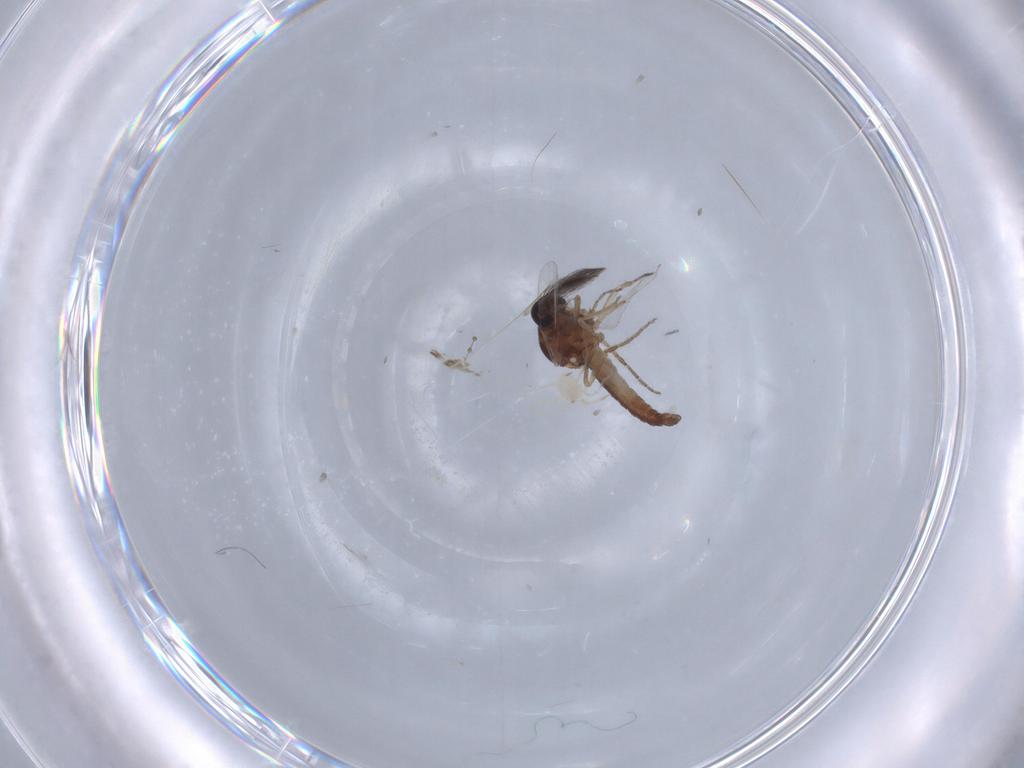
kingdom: Animalia
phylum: Arthropoda
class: Insecta
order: Diptera
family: Ceratopogonidae
